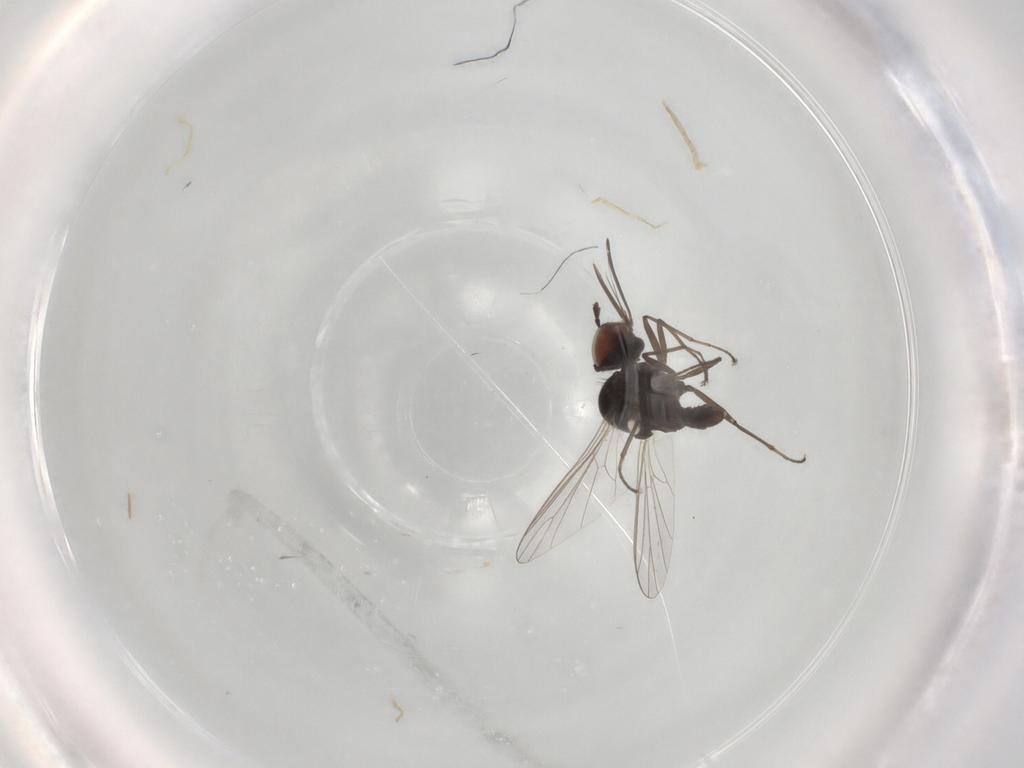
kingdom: Animalia
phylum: Arthropoda
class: Insecta
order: Diptera
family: Bombyliidae
